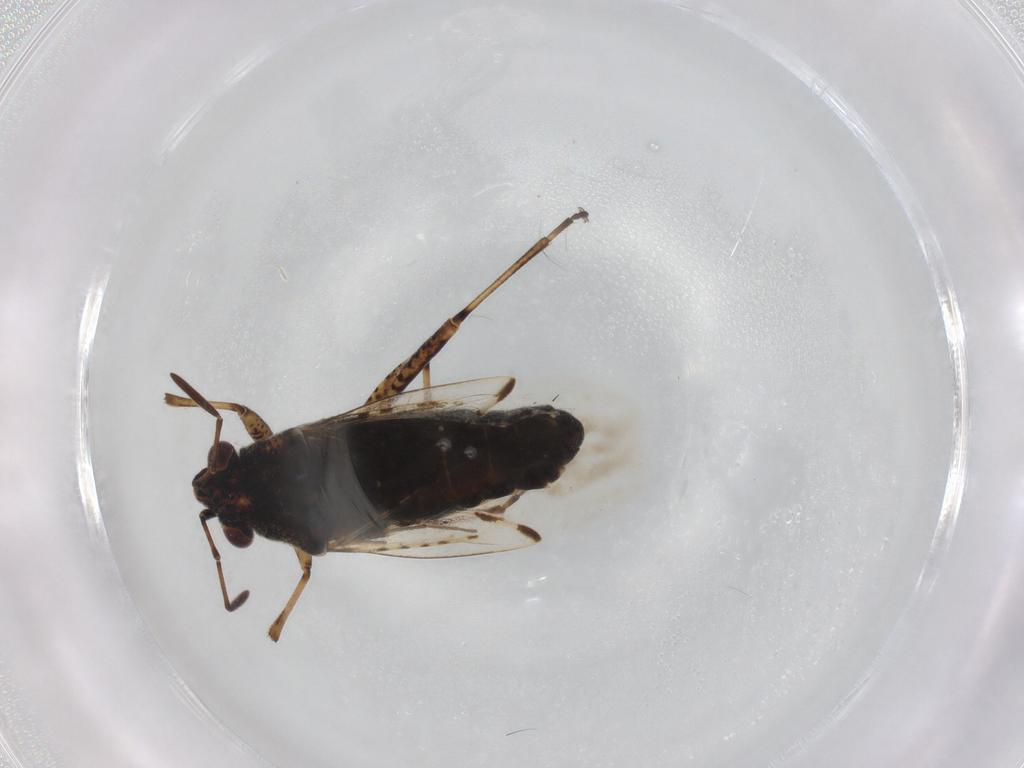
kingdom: Animalia
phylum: Arthropoda
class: Insecta
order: Hemiptera
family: Lygaeidae
